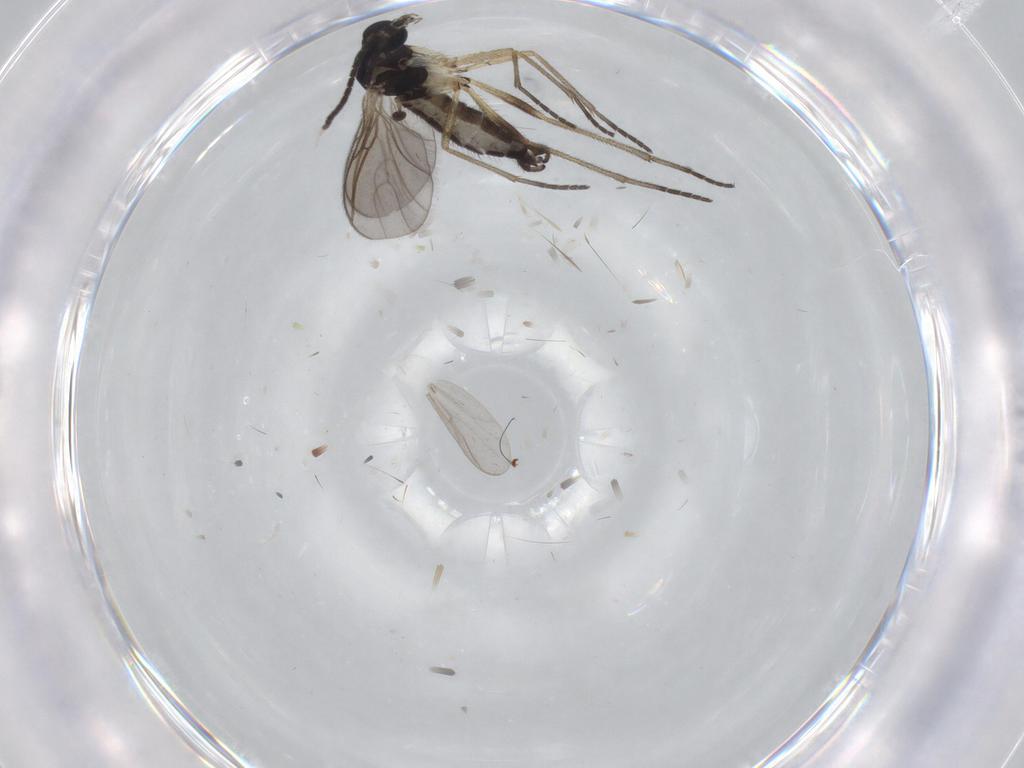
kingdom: Animalia
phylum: Arthropoda
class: Insecta
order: Diptera
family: Sciaridae
